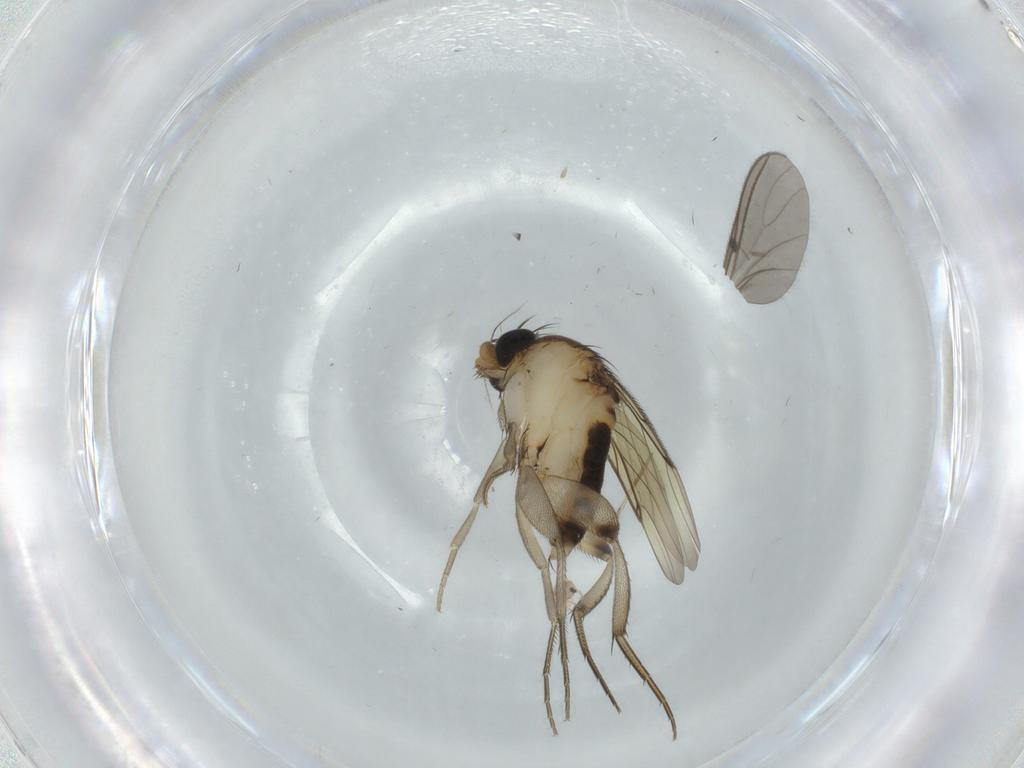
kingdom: Animalia
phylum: Arthropoda
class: Insecta
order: Diptera
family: Phoridae
